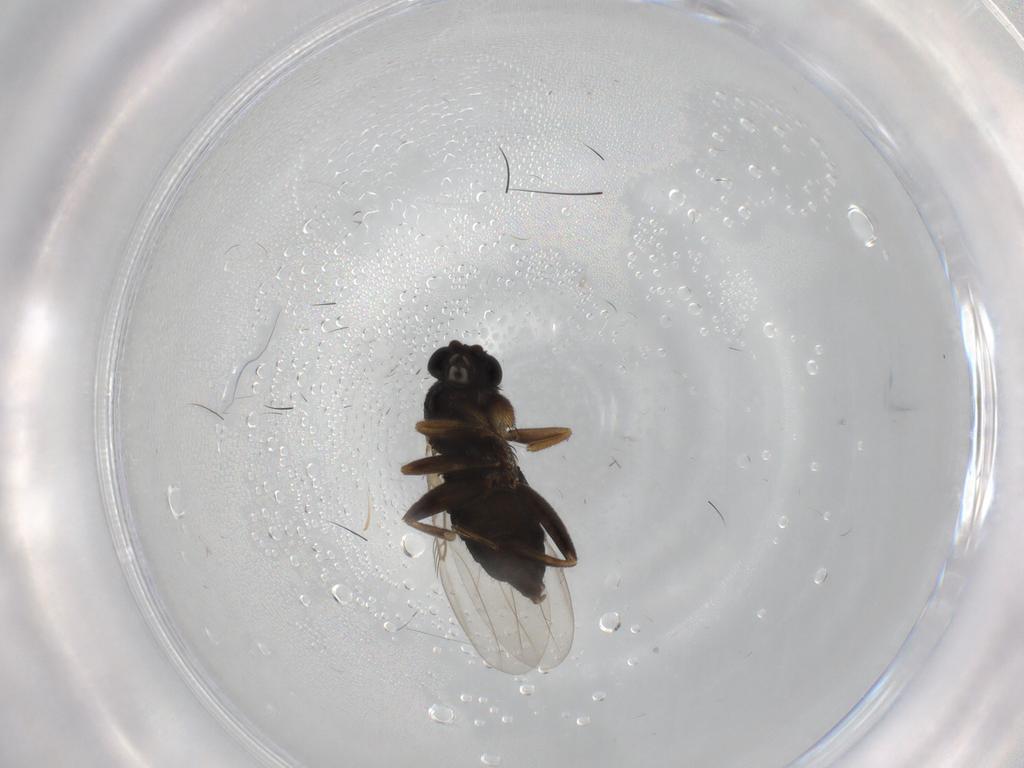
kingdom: Animalia
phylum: Arthropoda
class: Insecta
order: Diptera
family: Phoridae
